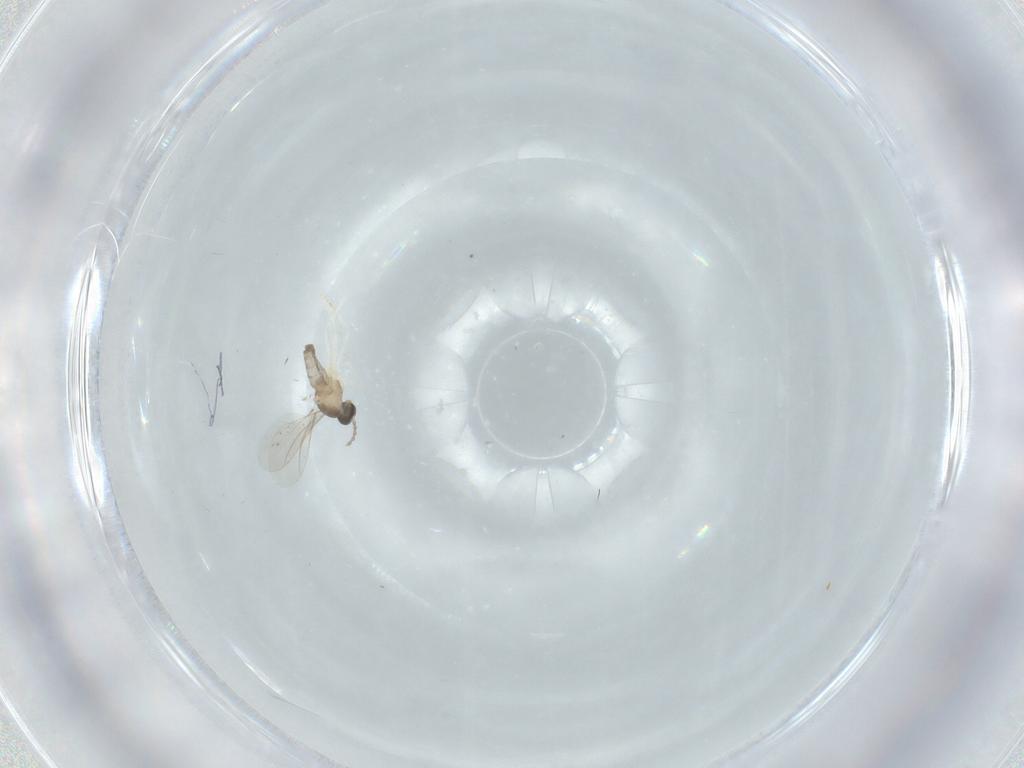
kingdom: Animalia
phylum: Arthropoda
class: Insecta
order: Diptera
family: Cecidomyiidae
